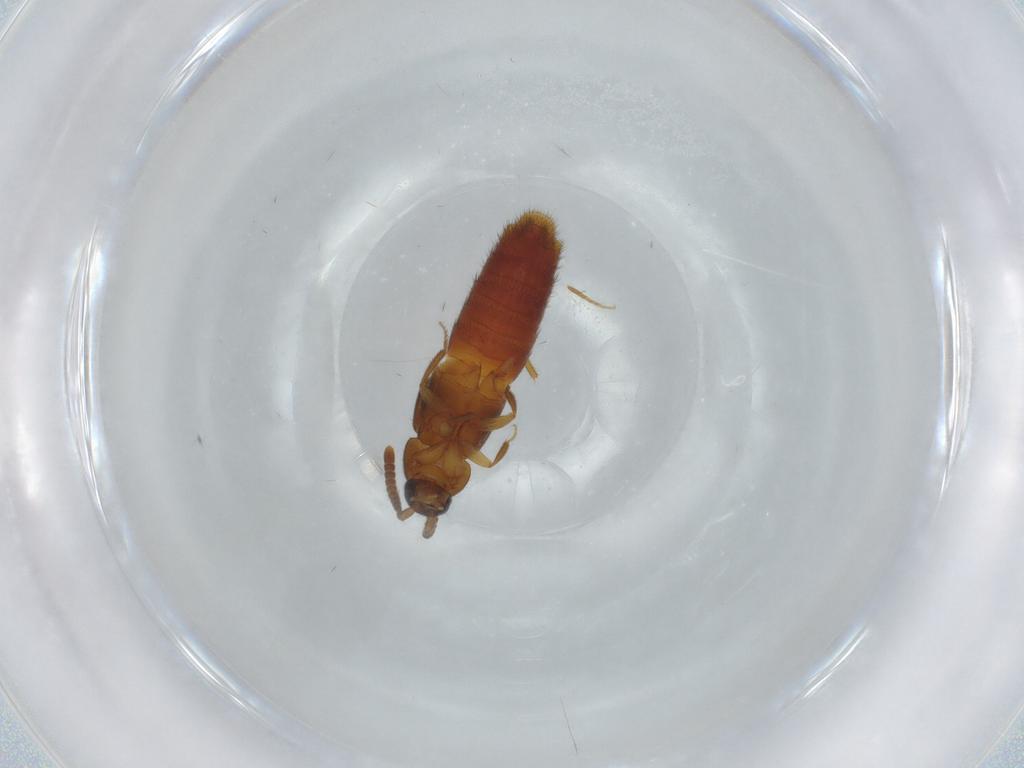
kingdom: Animalia
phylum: Arthropoda
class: Insecta
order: Coleoptera
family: Staphylinidae
